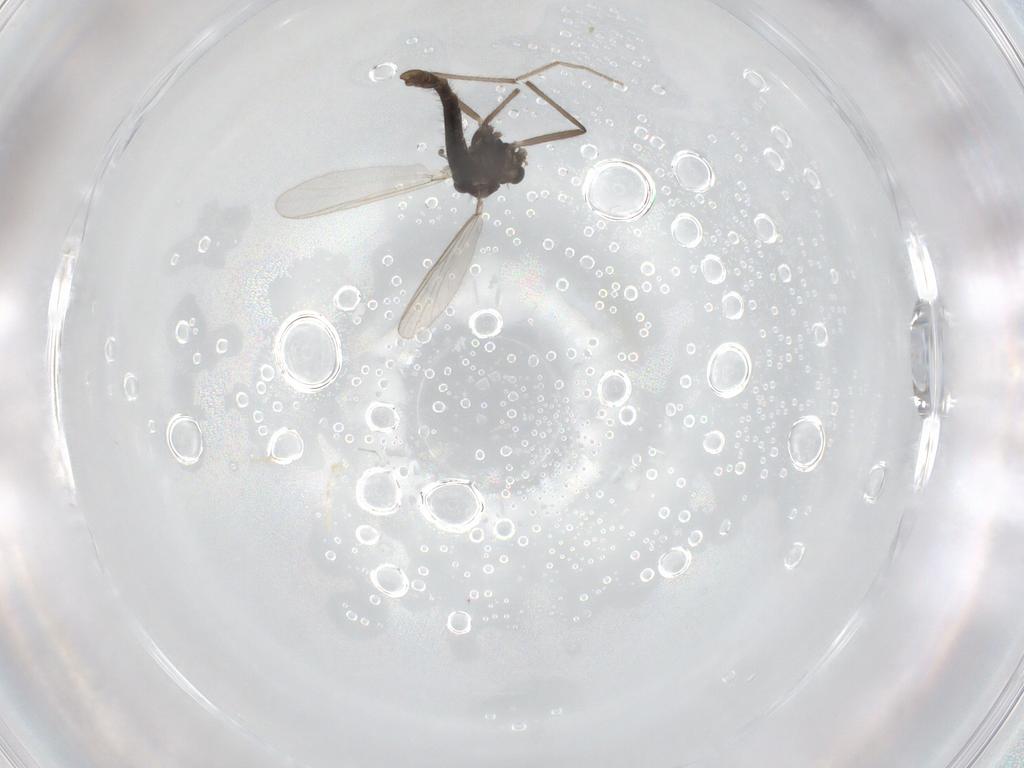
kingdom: Animalia
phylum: Arthropoda
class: Insecta
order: Diptera
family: Chironomidae
